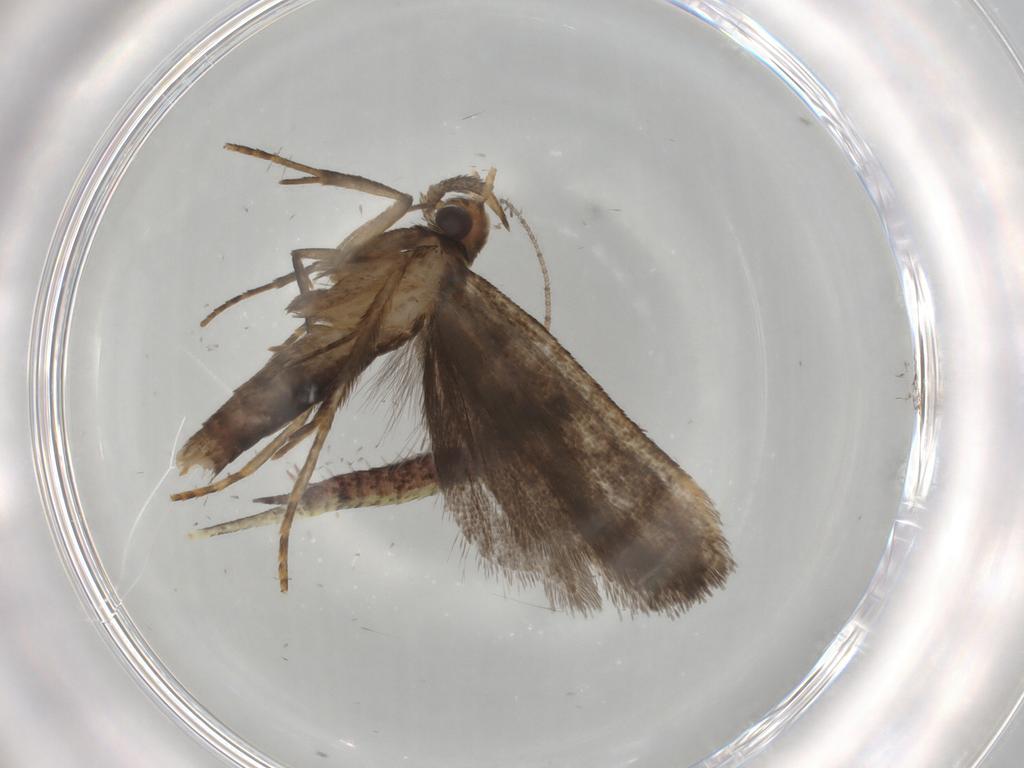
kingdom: Animalia
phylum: Arthropoda
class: Insecta
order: Lepidoptera
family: Gelechiidae
